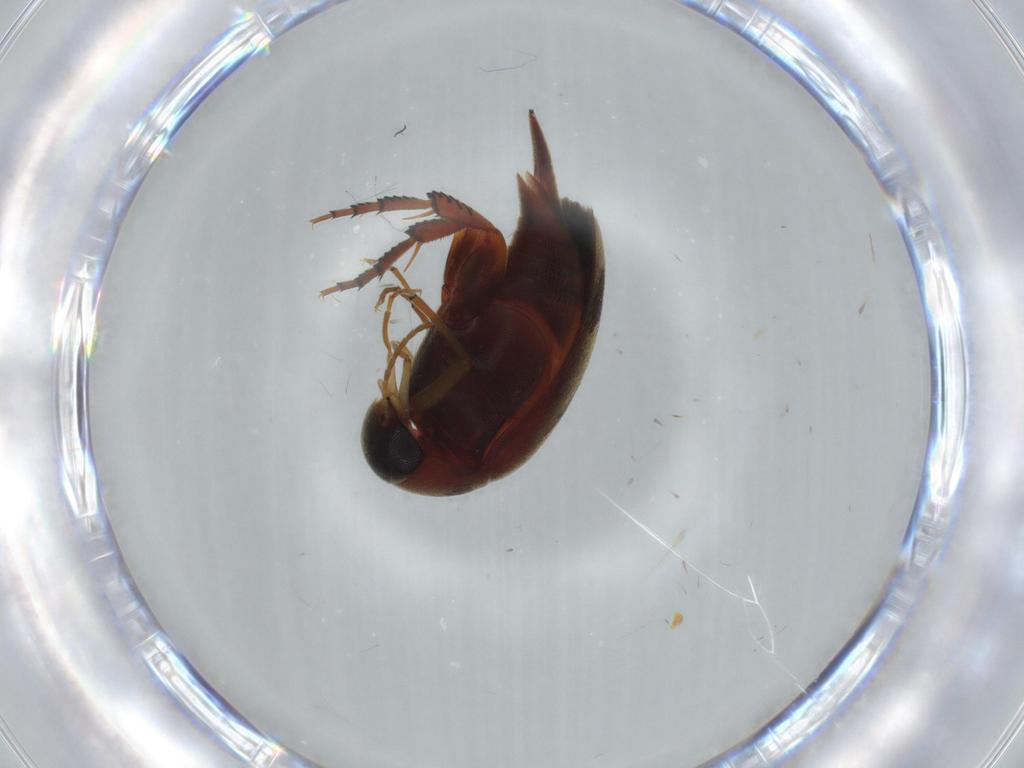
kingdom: Animalia
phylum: Arthropoda
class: Insecta
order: Coleoptera
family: Mordellidae
